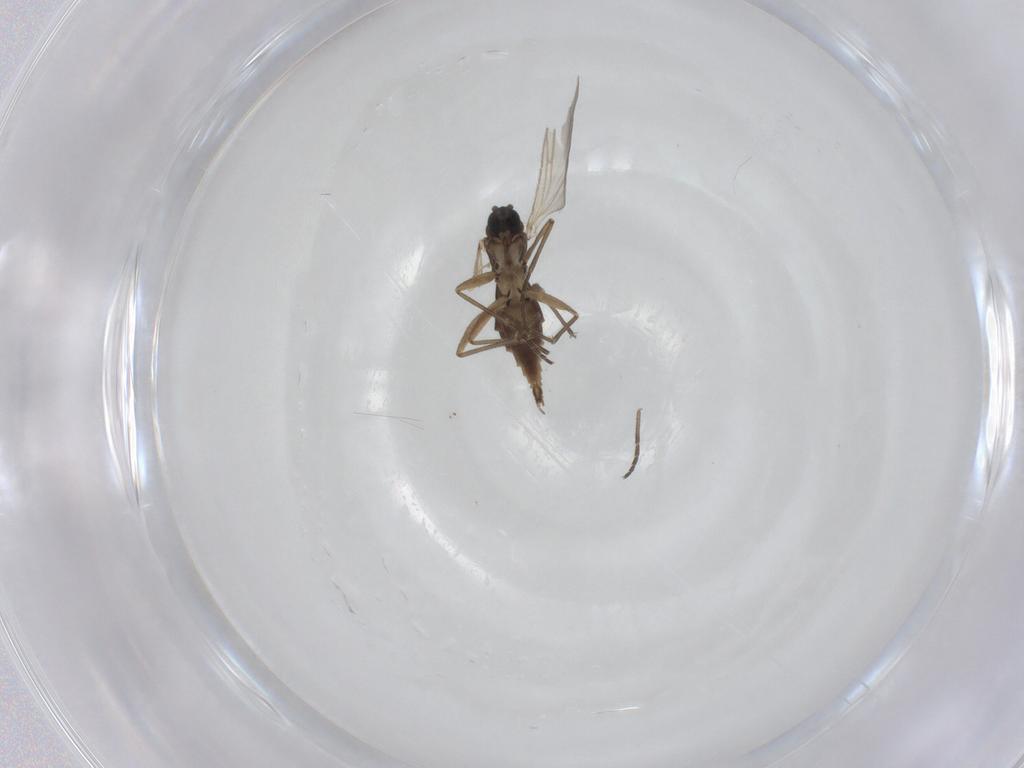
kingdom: Animalia
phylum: Arthropoda
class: Insecta
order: Diptera
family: Sciaridae
